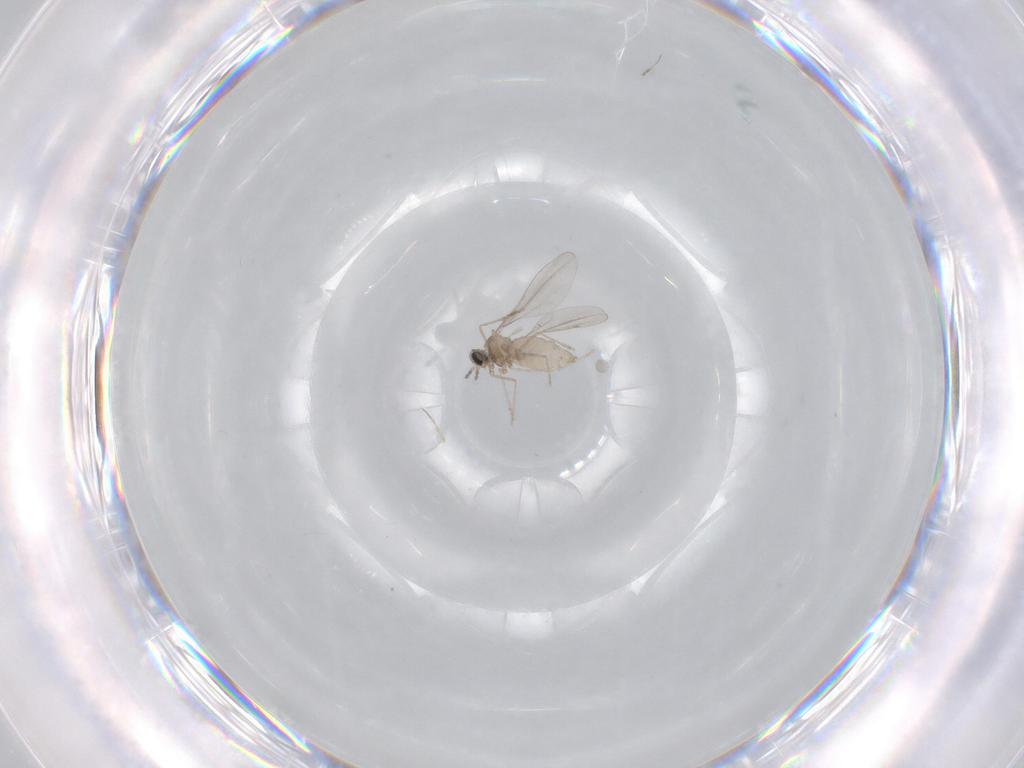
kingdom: Animalia
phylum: Arthropoda
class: Insecta
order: Diptera
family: Chironomidae
